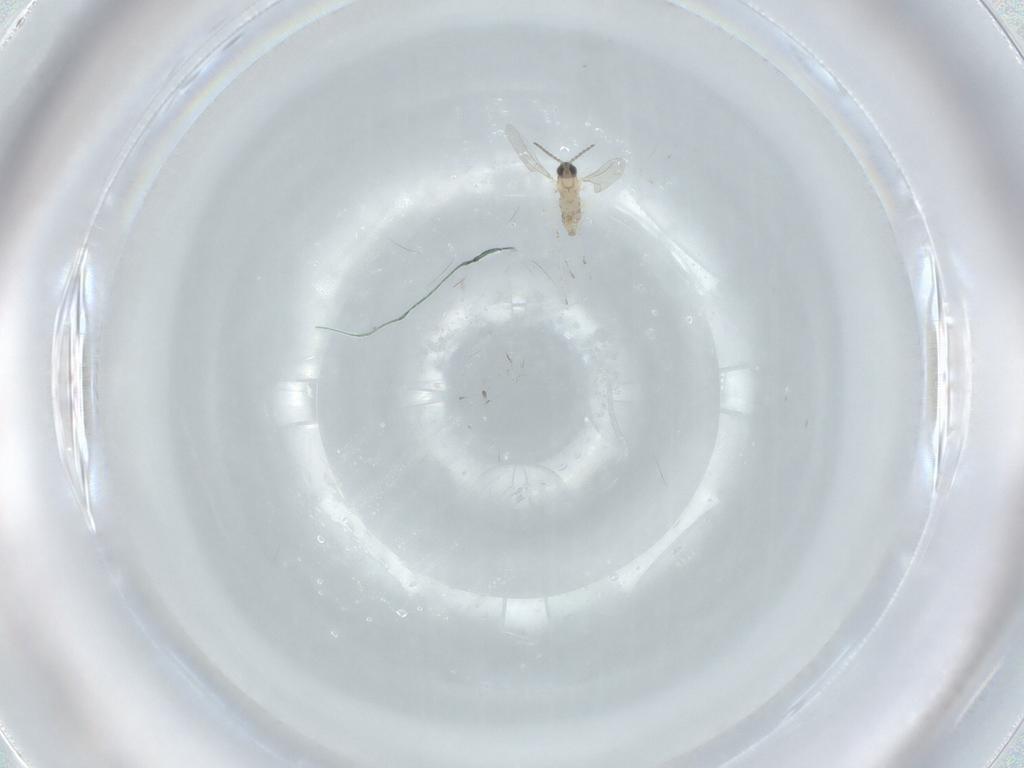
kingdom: Animalia
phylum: Arthropoda
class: Insecta
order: Diptera
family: Cecidomyiidae
